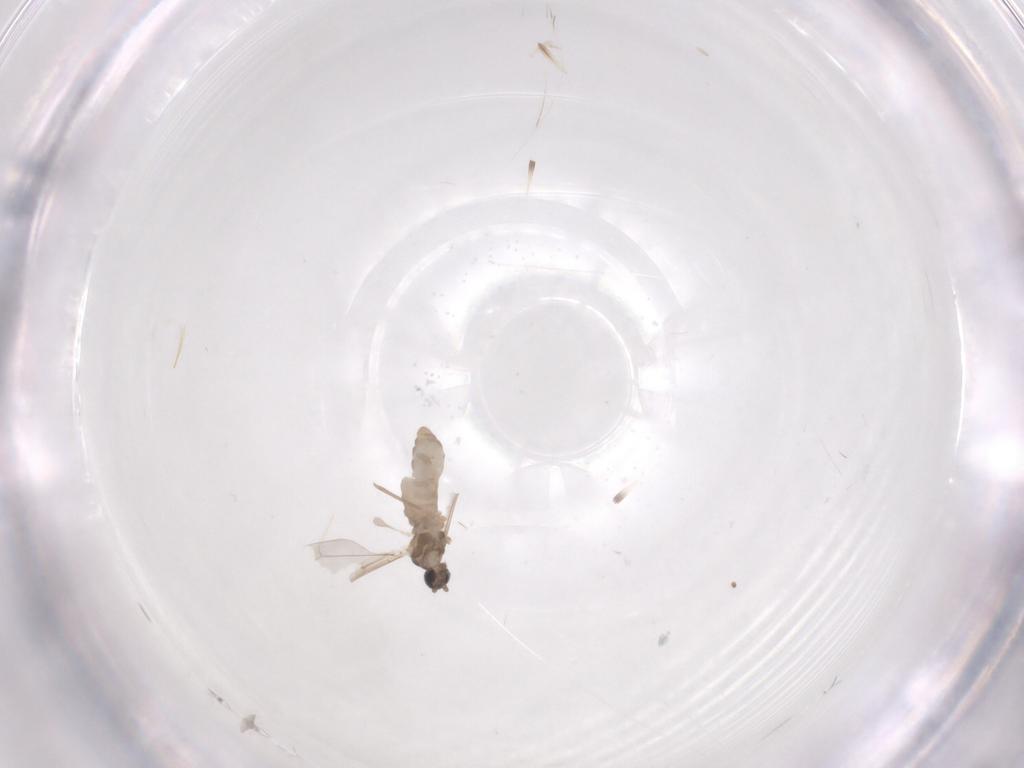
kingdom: Animalia
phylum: Arthropoda
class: Insecta
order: Diptera
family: Cecidomyiidae
